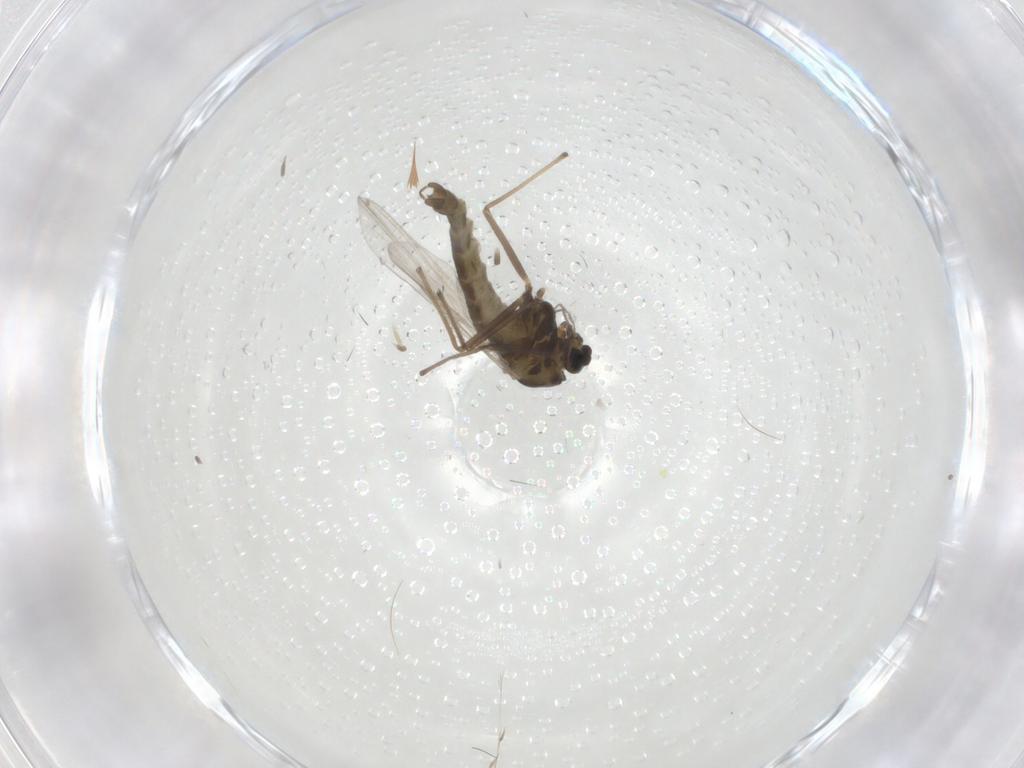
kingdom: Animalia
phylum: Arthropoda
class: Insecta
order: Diptera
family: Chironomidae
